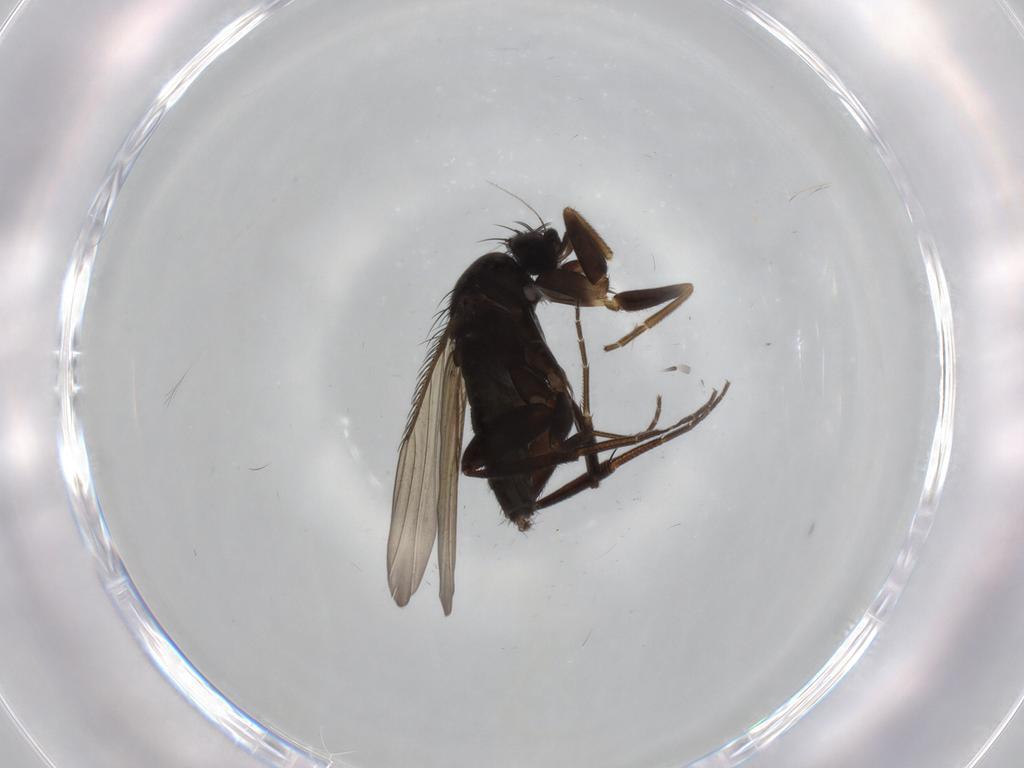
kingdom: Animalia
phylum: Arthropoda
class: Insecta
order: Diptera
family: Phoridae
